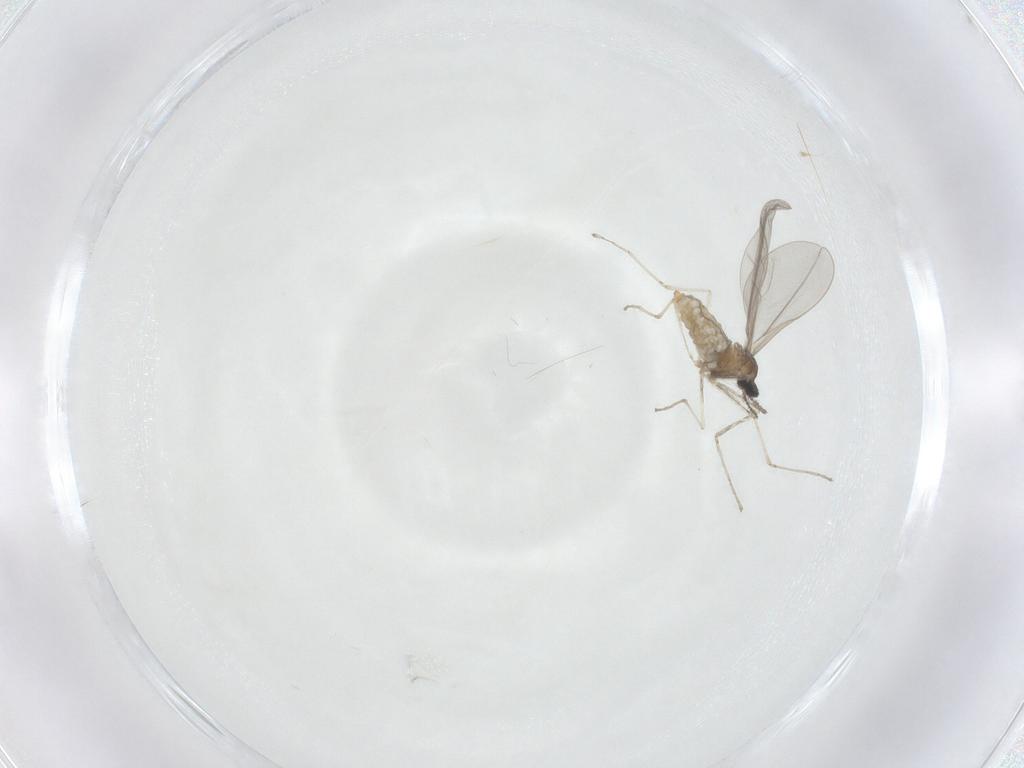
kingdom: Animalia
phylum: Arthropoda
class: Insecta
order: Diptera
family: Cecidomyiidae
